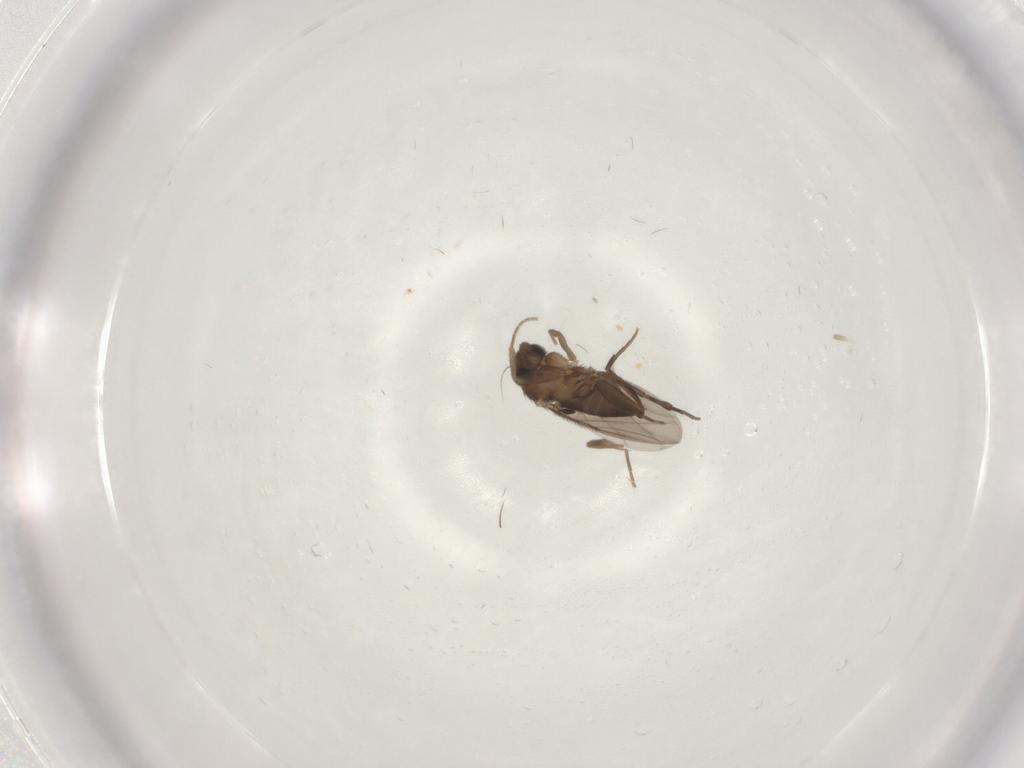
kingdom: Animalia
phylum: Arthropoda
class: Insecta
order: Diptera
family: Phoridae
